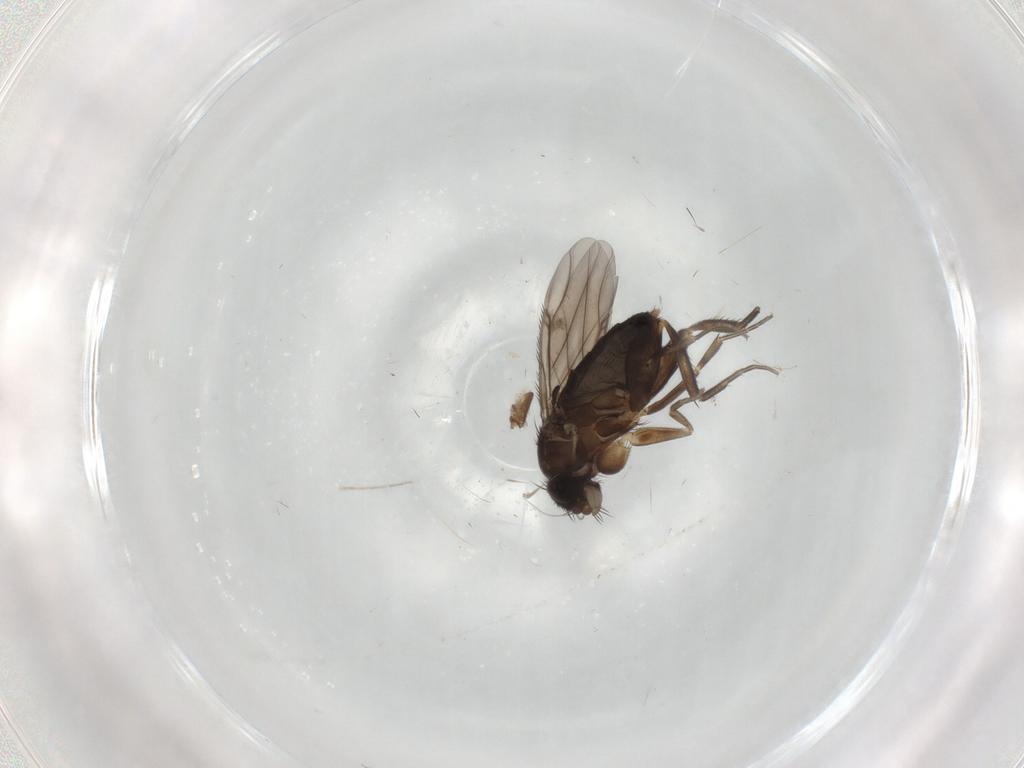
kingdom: Animalia
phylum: Arthropoda
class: Insecta
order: Diptera
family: Phoridae
